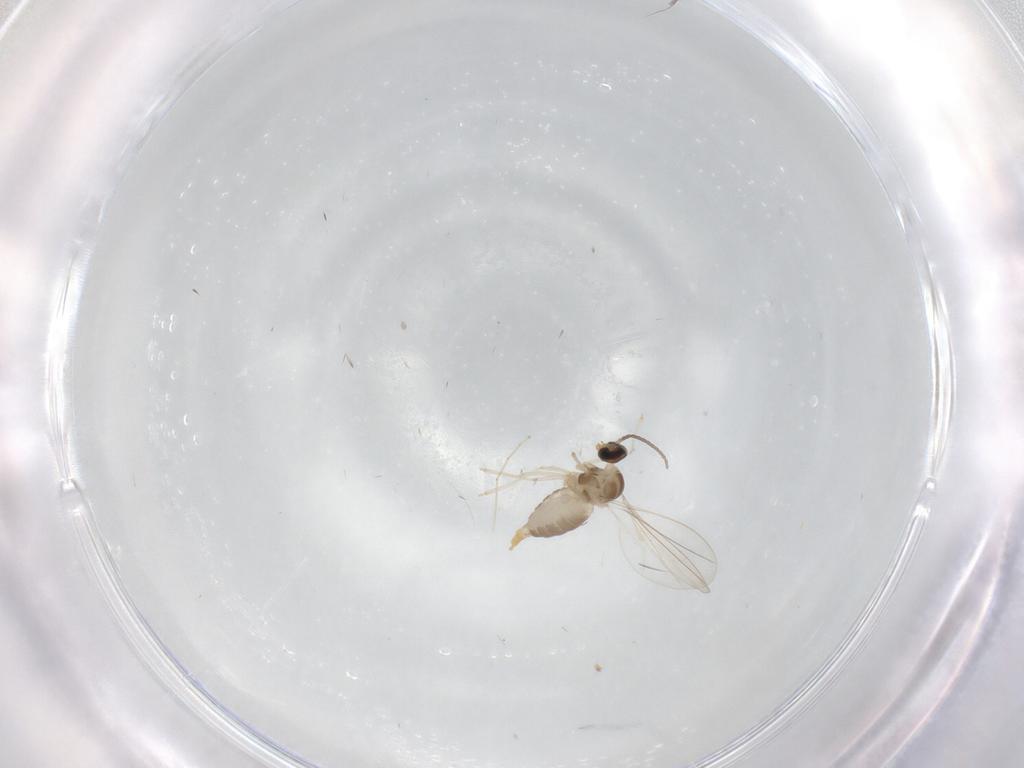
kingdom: Animalia
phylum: Arthropoda
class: Insecta
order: Diptera
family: Cecidomyiidae
